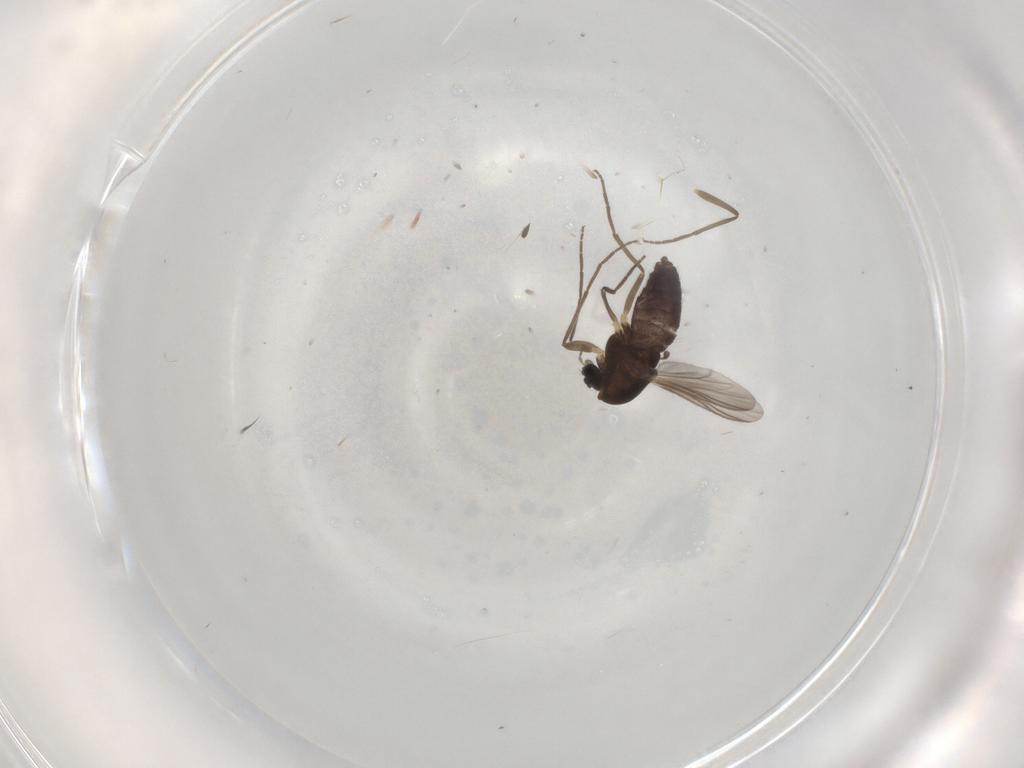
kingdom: Animalia
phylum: Arthropoda
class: Insecta
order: Diptera
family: Chironomidae
